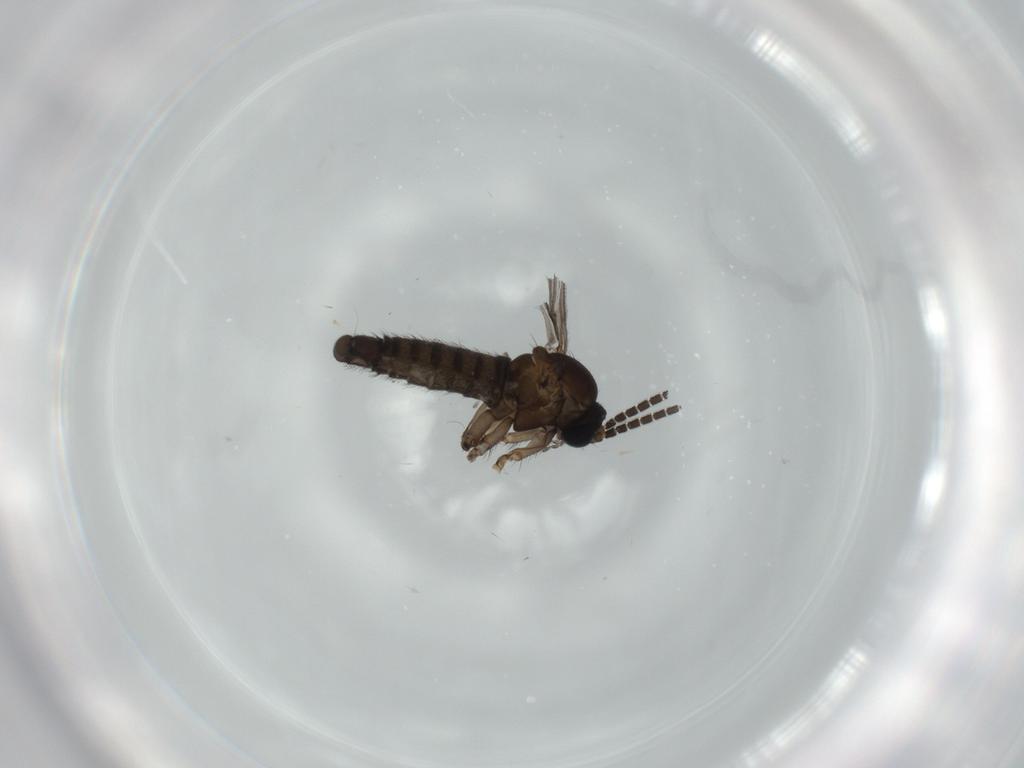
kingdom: Animalia
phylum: Arthropoda
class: Insecta
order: Diptera
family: Sciaridae
